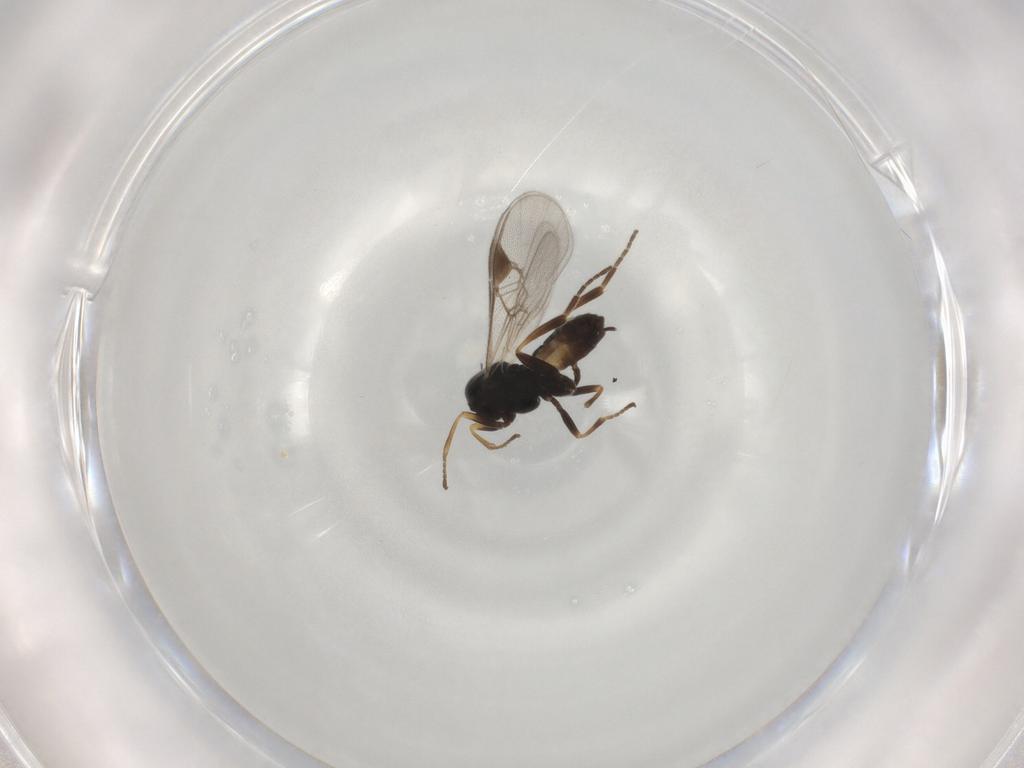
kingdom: Animalia
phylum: Arthropoda
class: Insecta
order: Hymenoptera
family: Braconidae
